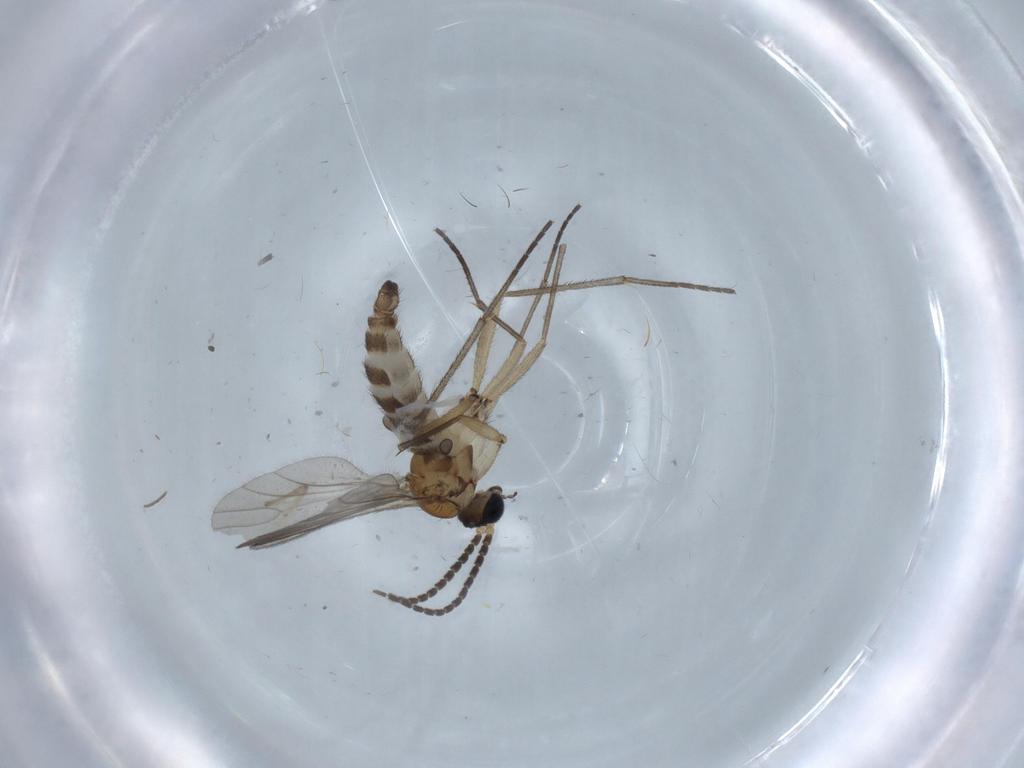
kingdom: Animalia
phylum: Arthropoda
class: Insecta
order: Diptera
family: Sciaridae
